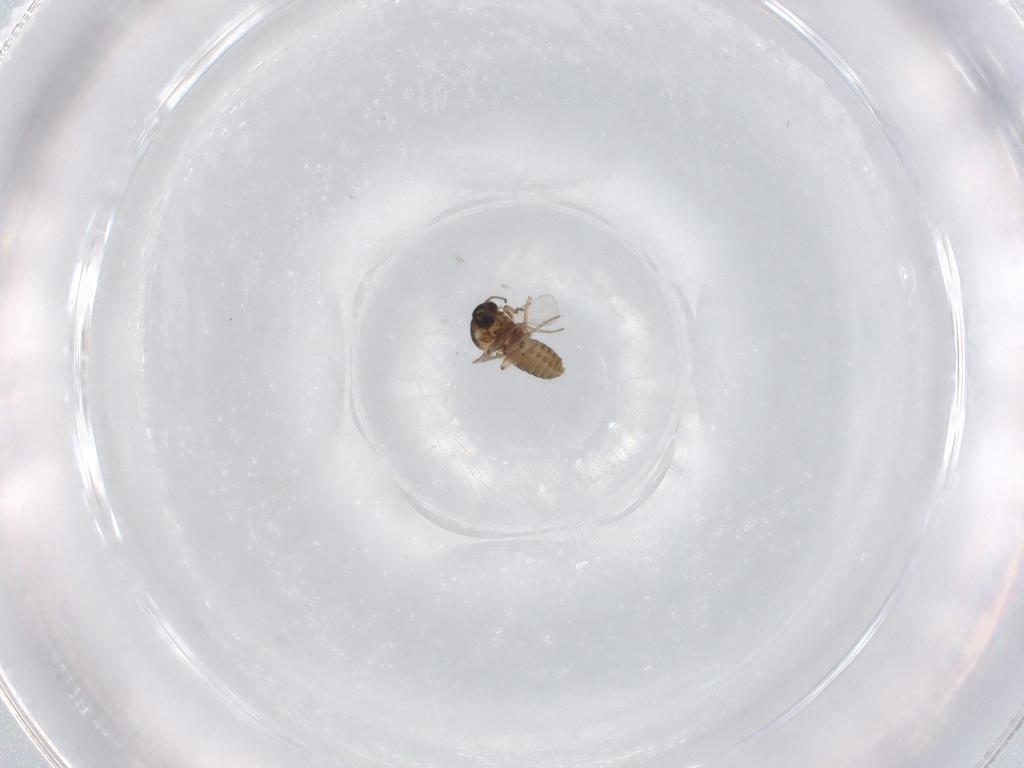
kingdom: Animalia
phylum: Arthropoda
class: Insecta
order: Diptera
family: Ceratopogonidae
